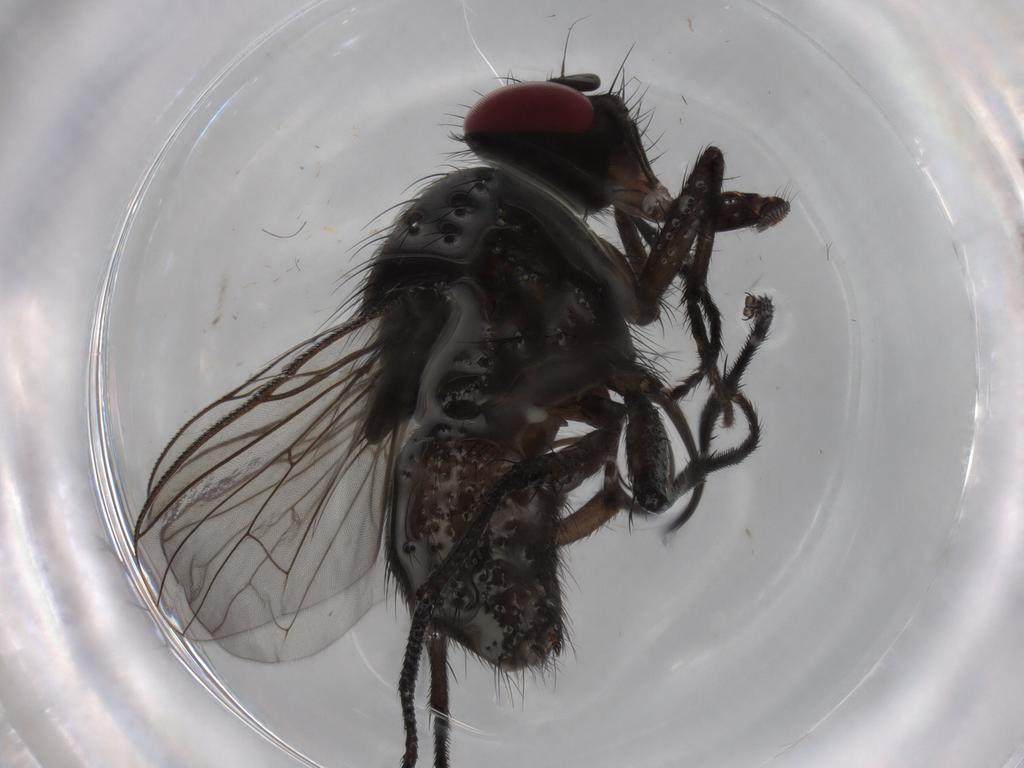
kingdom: Animalia
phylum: Arthropoda
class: Insecta
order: Diptera
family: Muscidae
